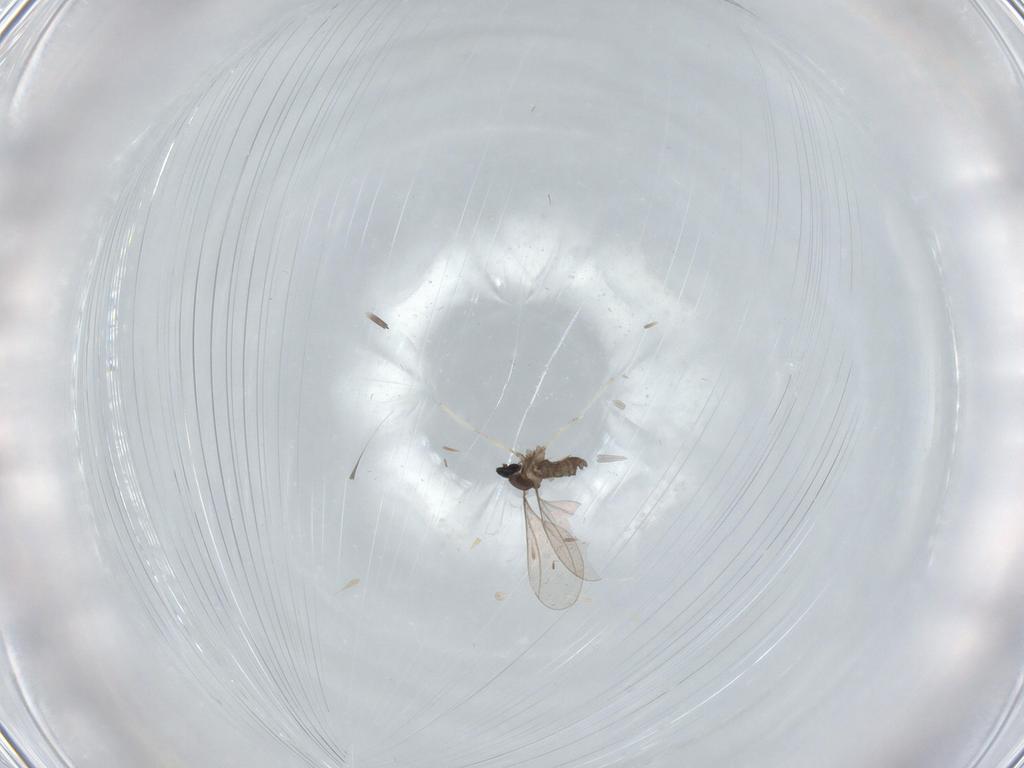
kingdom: Animalia
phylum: Arthropoda
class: Insecta
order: Diptera
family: Cecidomyiidae
